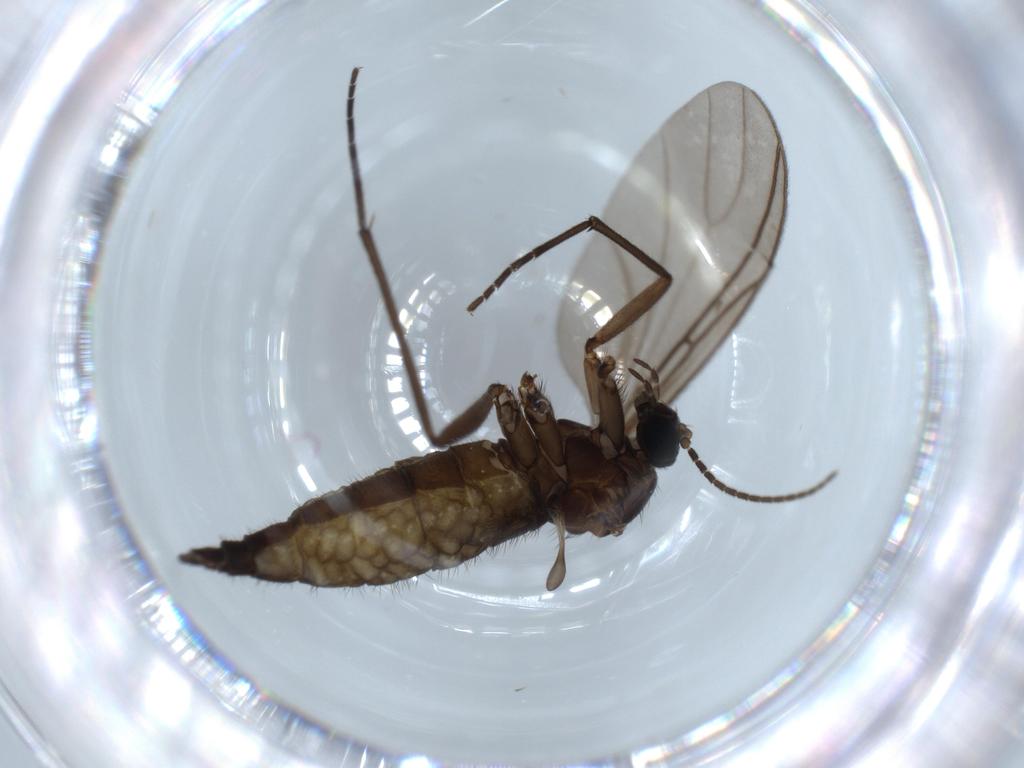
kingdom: Animalia
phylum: Arthropoda
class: Insecta
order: Diptera
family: Sciaridae
